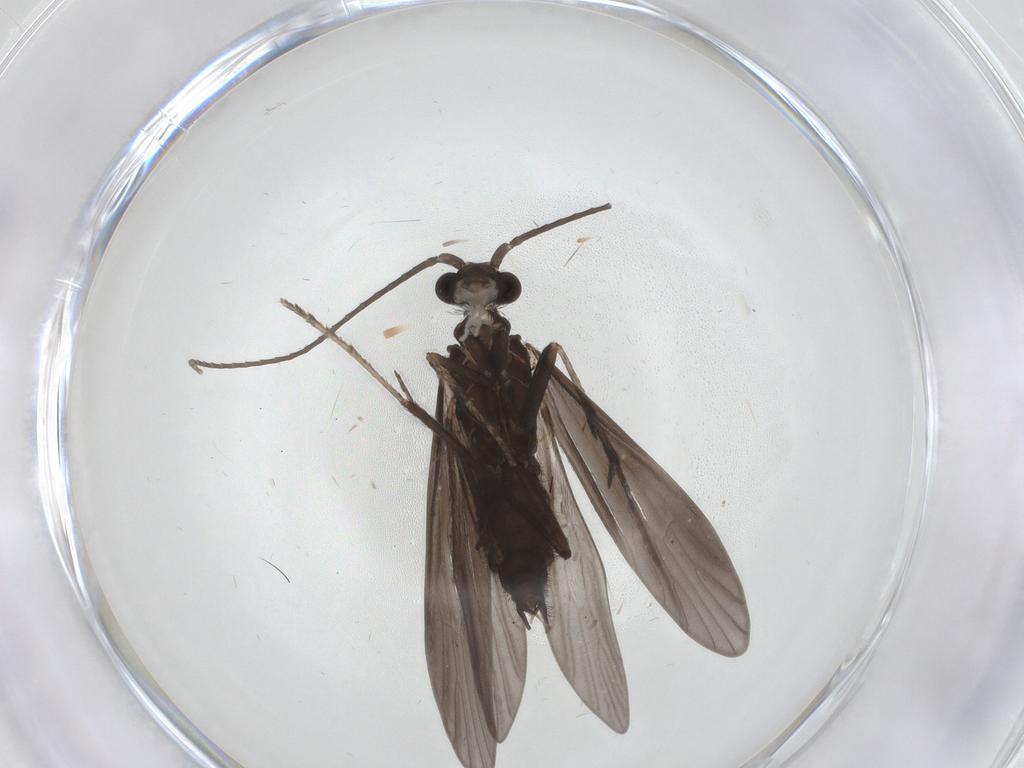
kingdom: Animalia
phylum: Arthropoda
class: Insecta
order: Trichoptera
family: Xiphocentronidae
